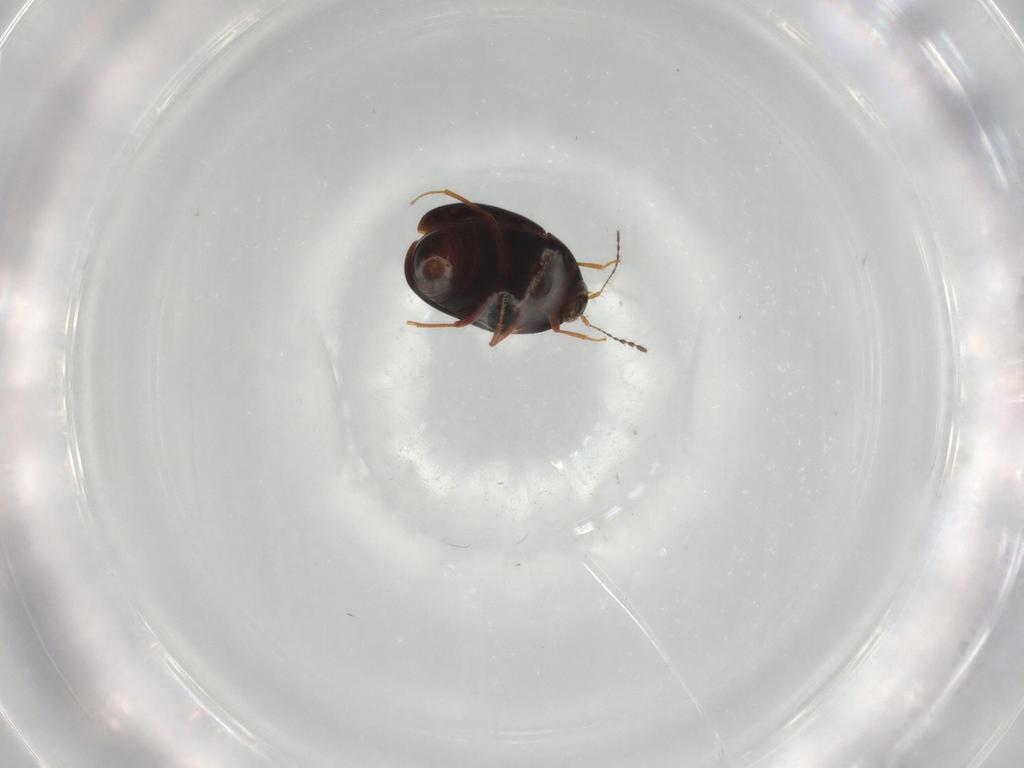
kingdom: Animalia
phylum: Arthropoda
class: Insecta
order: Coleoptera
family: Staphylinidae
